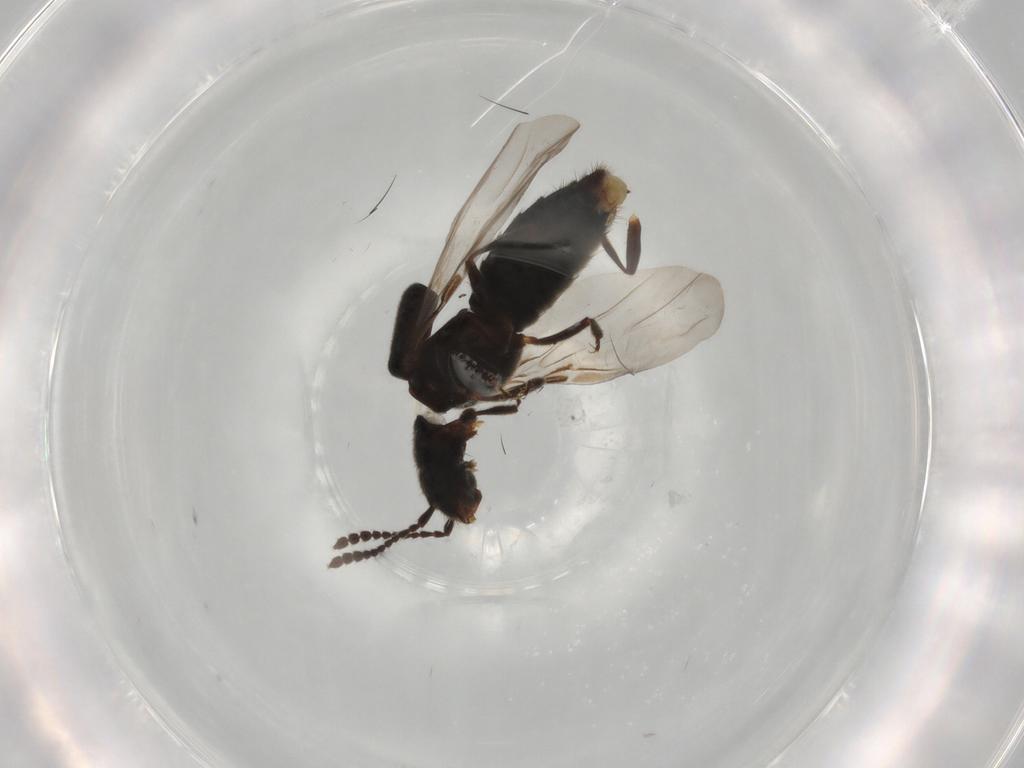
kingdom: Animalia
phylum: Arthropoda
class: Insecta
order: Coleoptera
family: Staphylinidae
